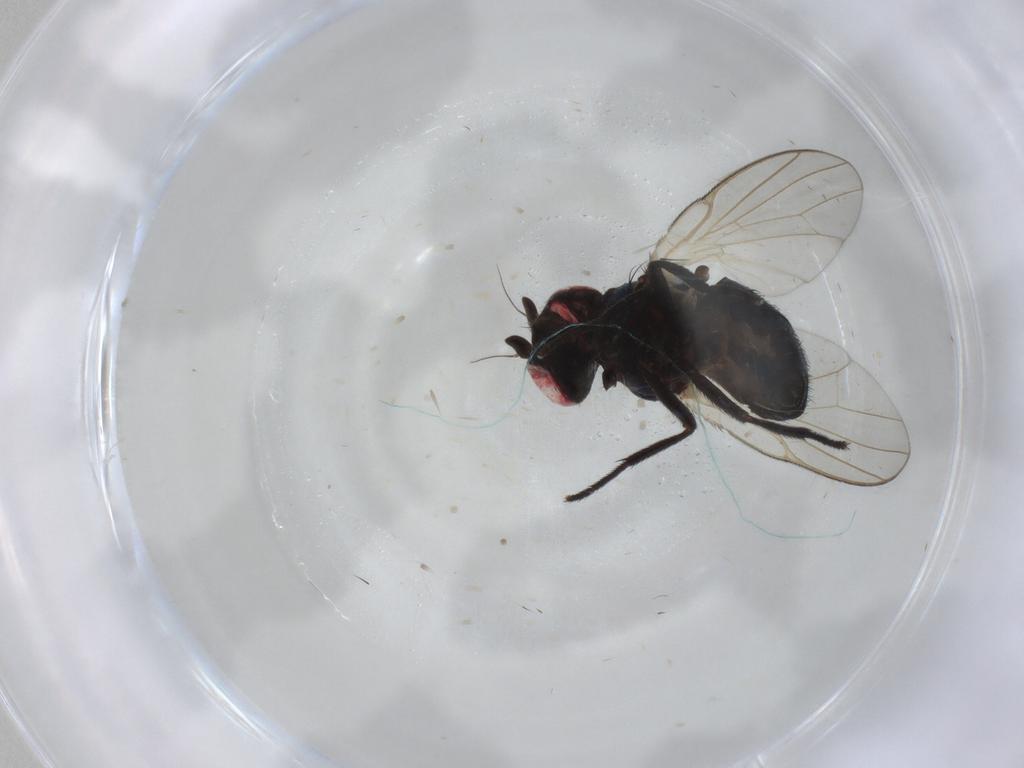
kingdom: Animalia
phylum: Arthropoda
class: Insecta
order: Diptera
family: Ceratopogonidae
